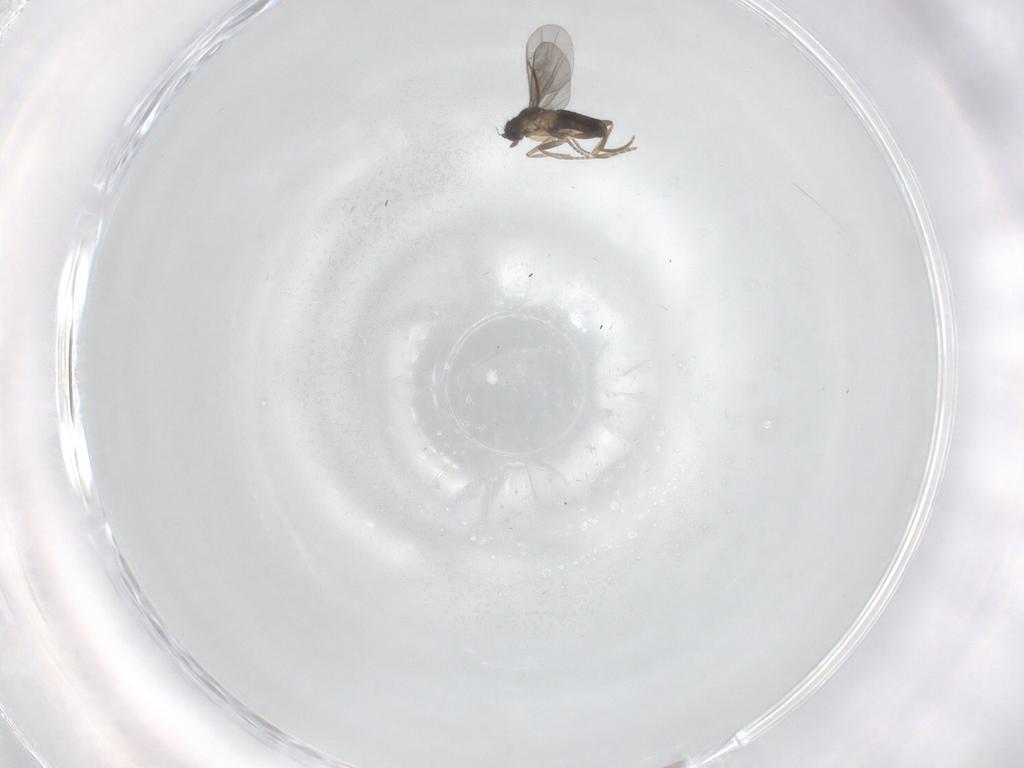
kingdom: Animalia
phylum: Arthropoda
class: Insecta
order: Diptera
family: Ceratopogonidae
